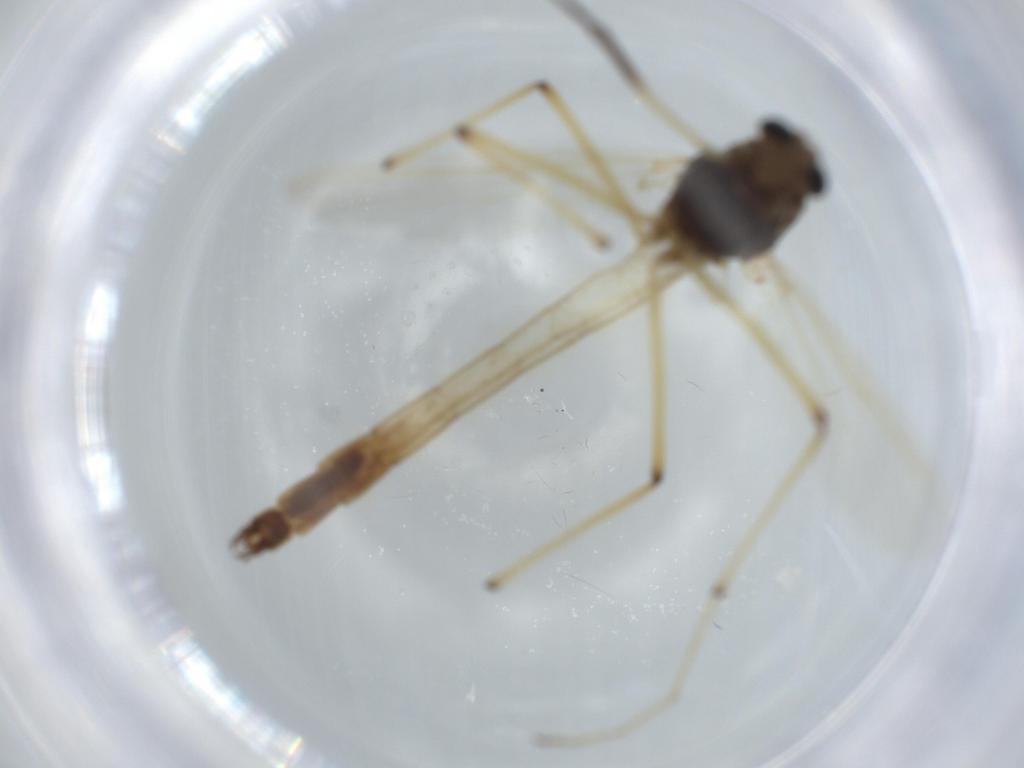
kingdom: Animalia
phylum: Arthropoda
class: Insecta
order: Diptera
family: Chironomidae
